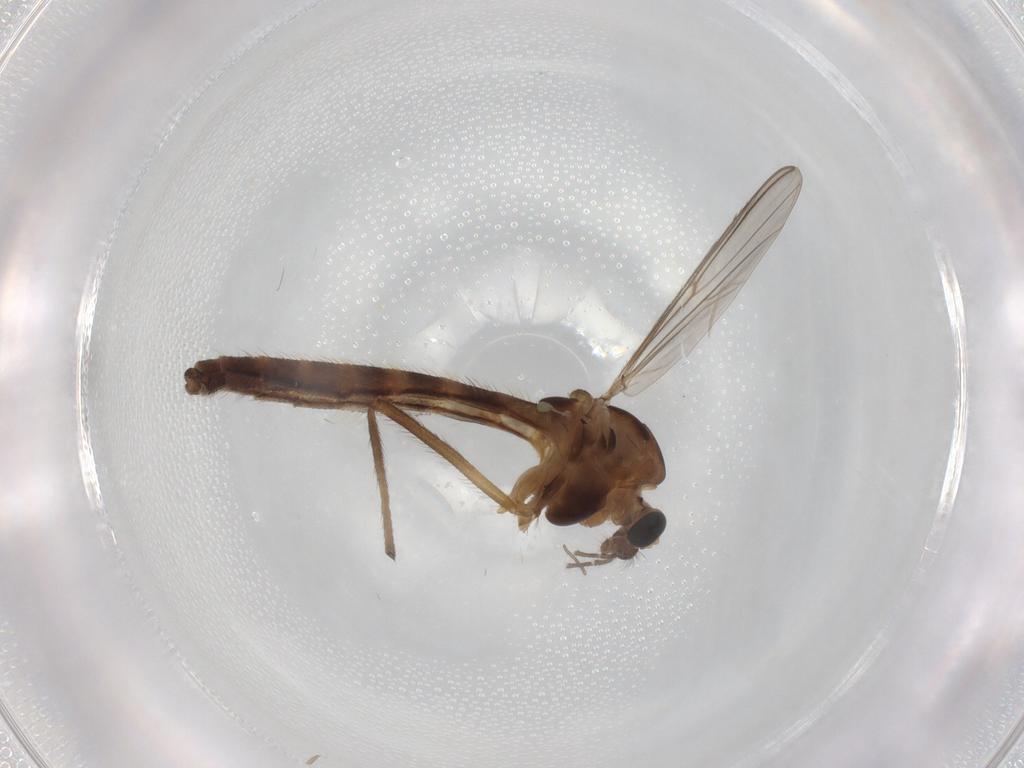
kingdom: Animalia
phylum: Arthropoda
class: Insecta
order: Diptera
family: Chironomidae
